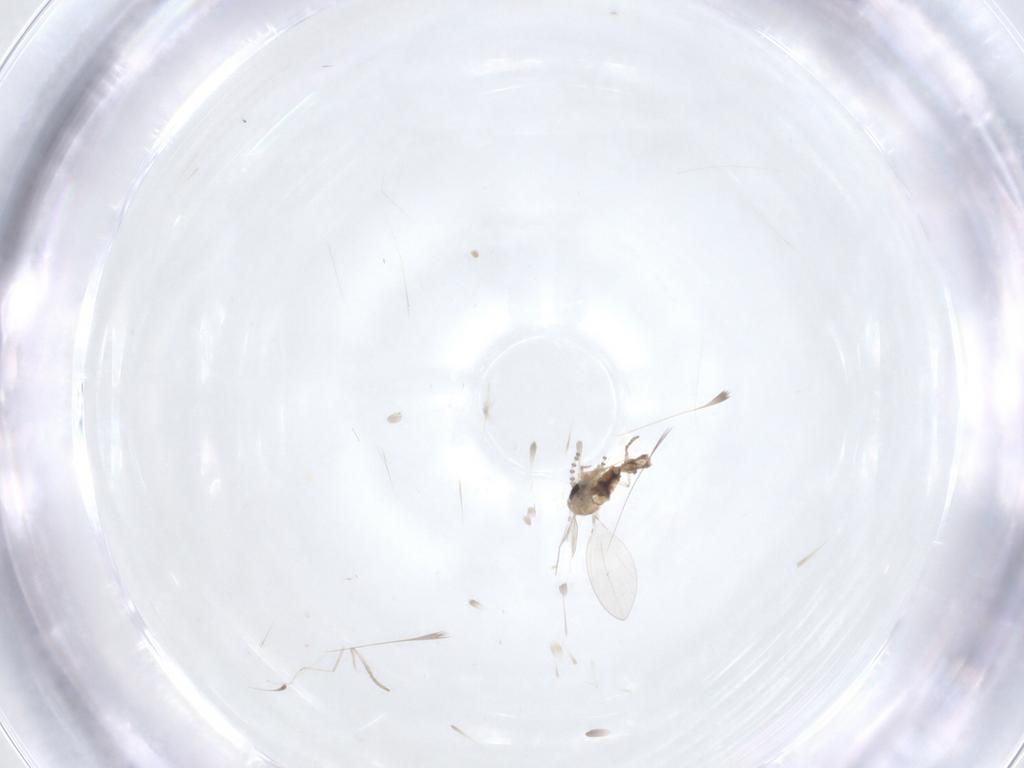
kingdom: Animalia
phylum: Arthropoda
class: Insecta
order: Diptera
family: Psychodidae
